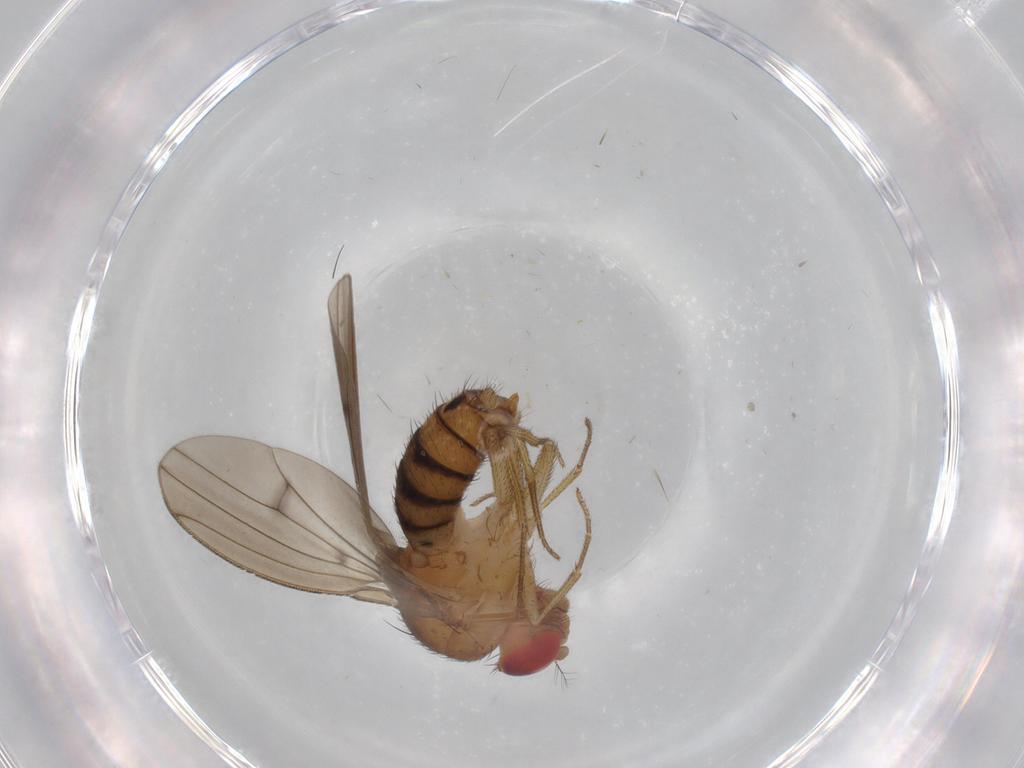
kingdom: Animalia
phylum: Arthropoda
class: Insecta
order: Diptera
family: Drosophilidae
